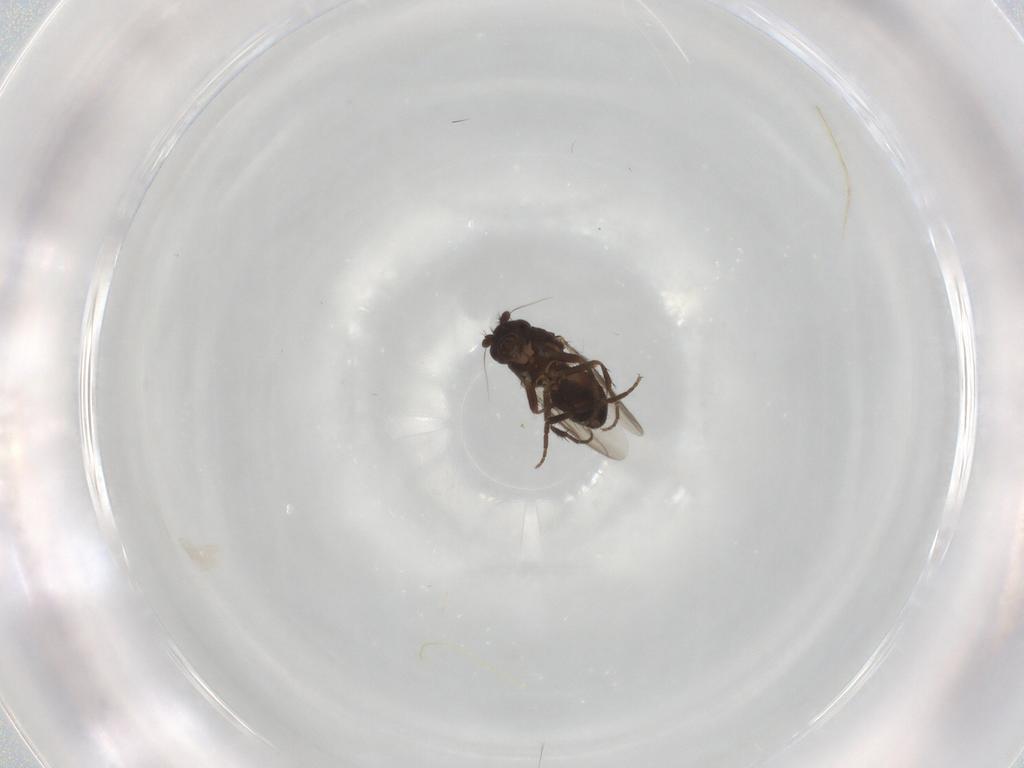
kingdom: Animalia
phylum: Arthropoda
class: Insecta
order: Diptera
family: Sphaeroceridae
